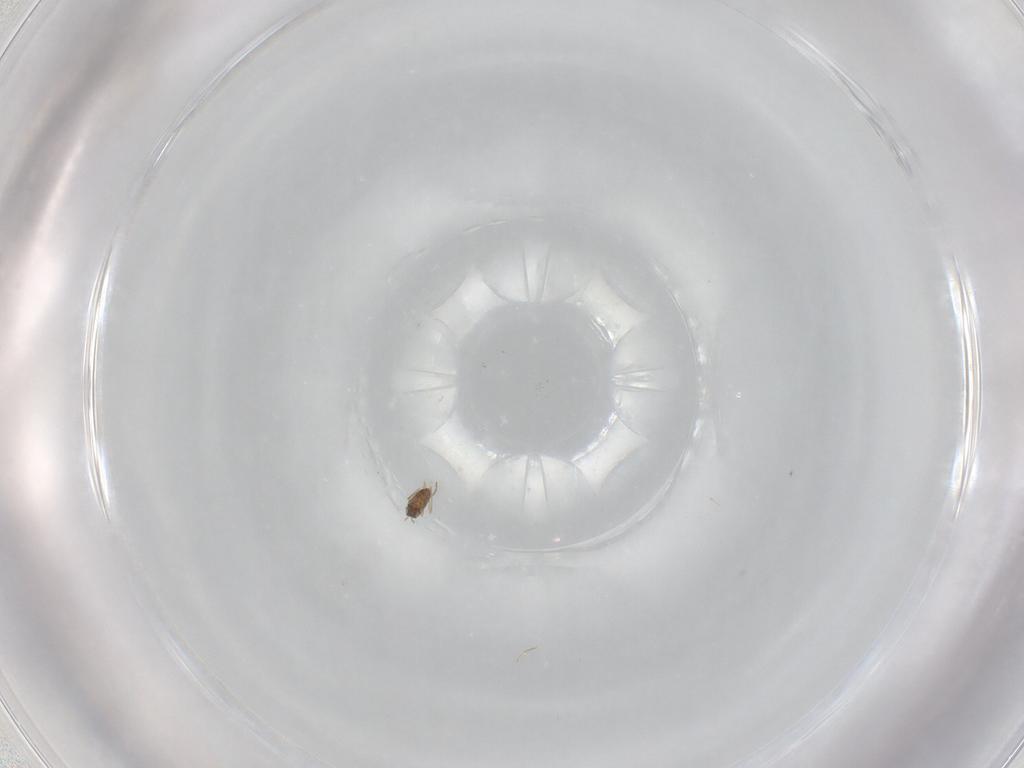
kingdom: Animalia
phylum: Arthropoda
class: Insecta
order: Hymenoptera
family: Mymaridae
